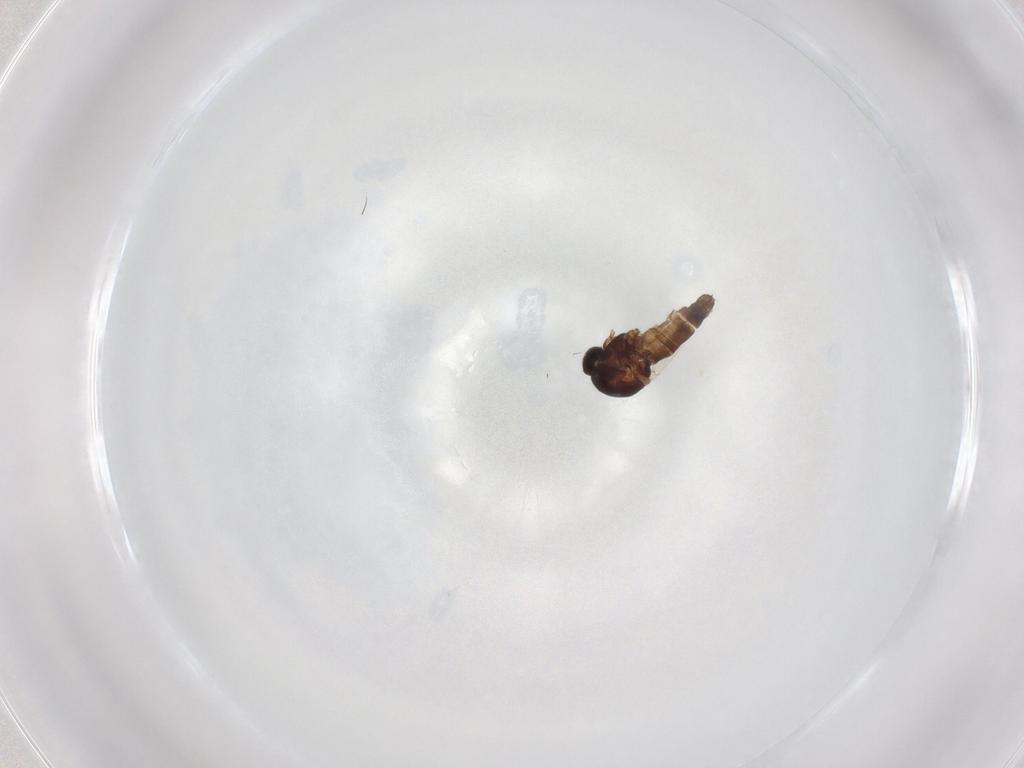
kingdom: Animalia
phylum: Arthropoda
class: Insecta
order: Diptera
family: Ceratopogonidae
